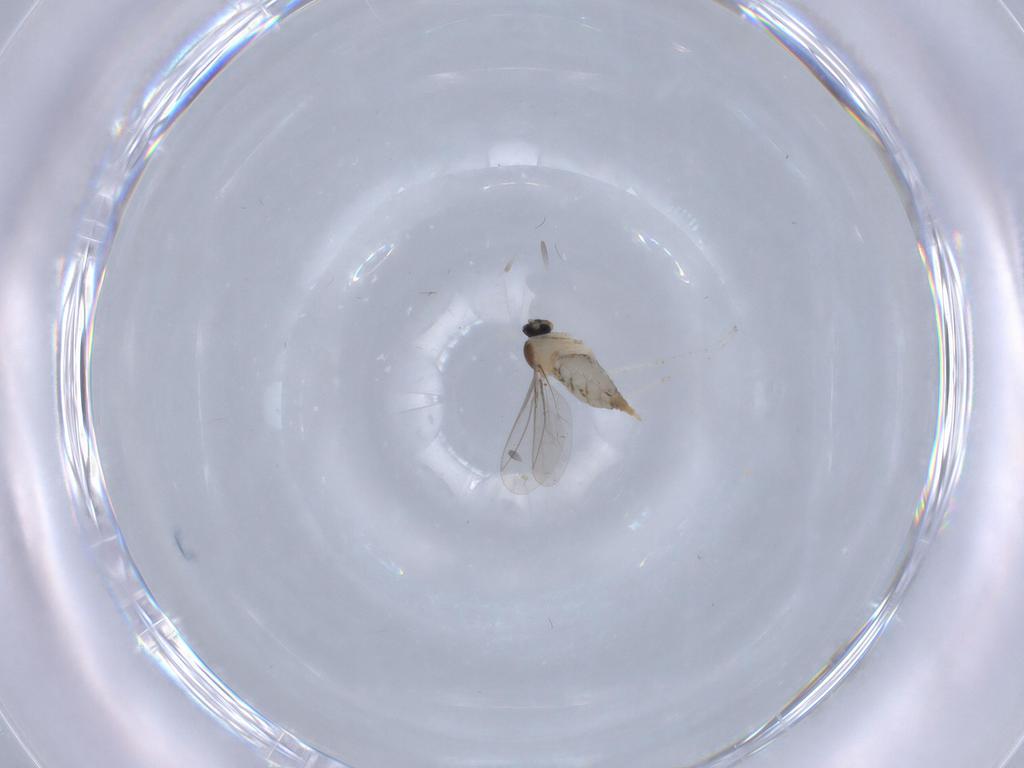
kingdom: Animalia
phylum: Arthropoda
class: Insecta
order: Diptera
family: Cecidomyiidae
